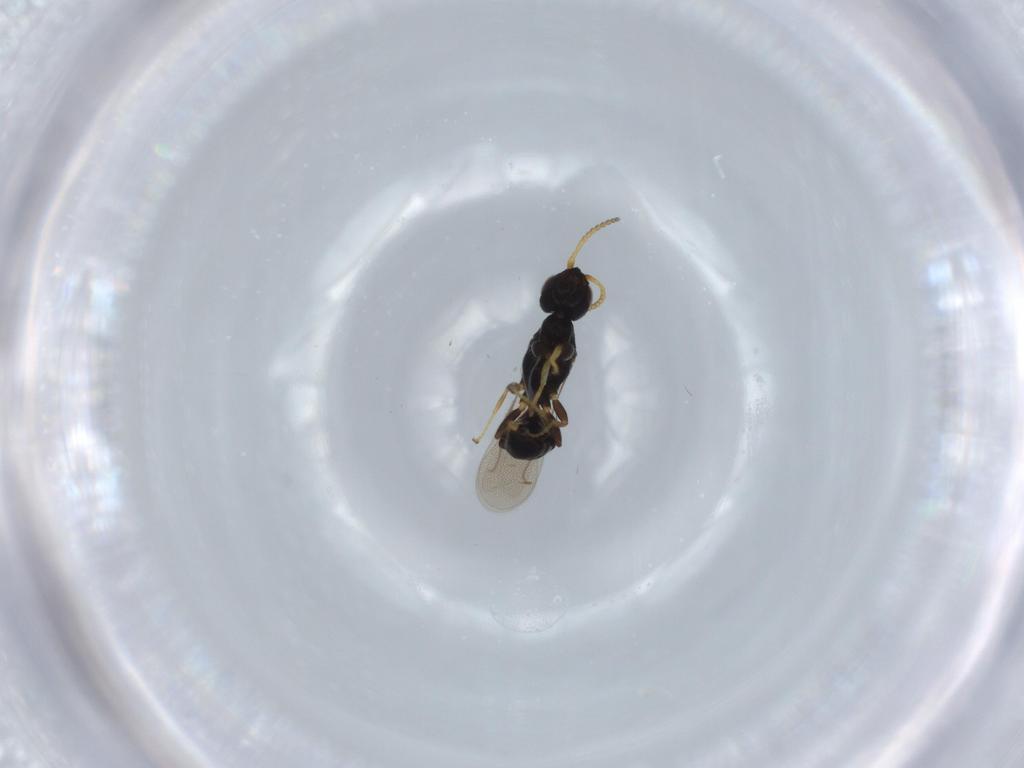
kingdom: Animalia
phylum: Arthropoda
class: Insecta
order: Hymenoptera
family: Bethylidae
